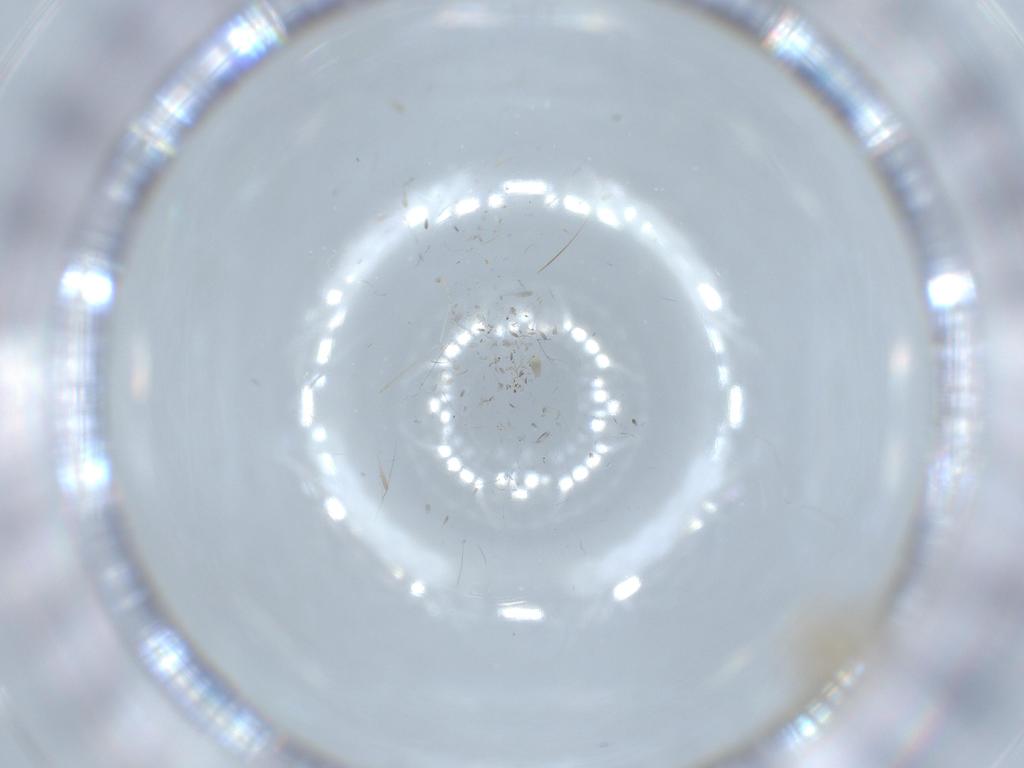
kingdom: Animalia
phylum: Arthropoda
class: Insecta
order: Diptera
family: Cecidomyiidae
